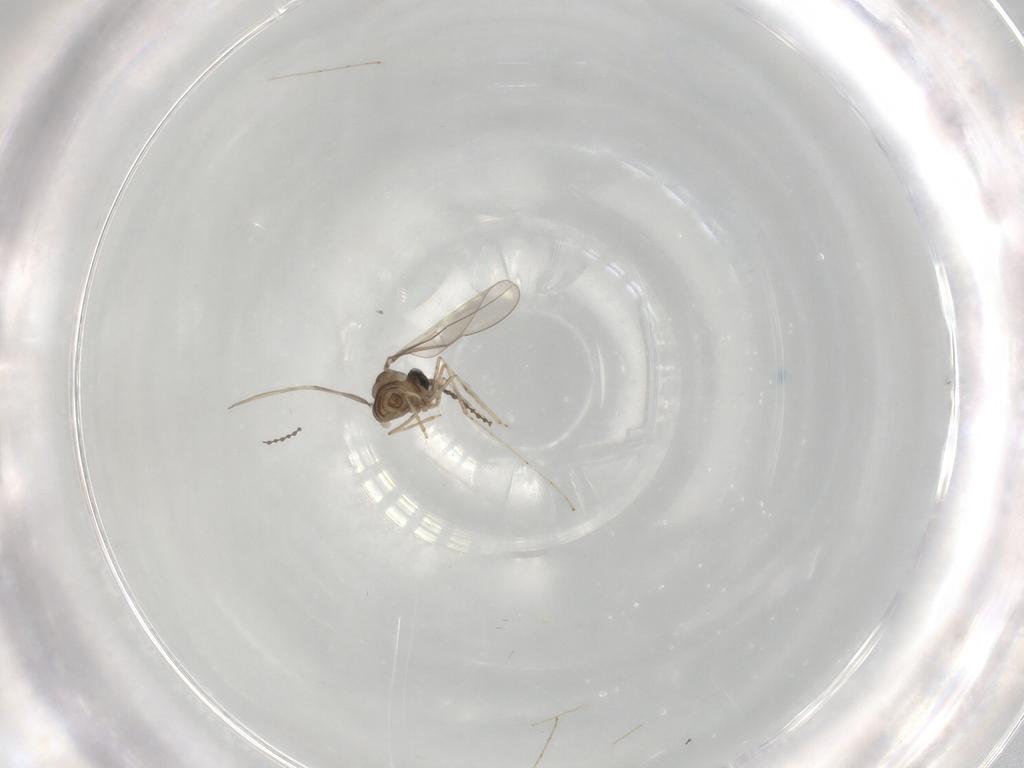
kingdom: Animalia
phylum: Arthropoda
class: Insecta
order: Diptera
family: Cecidomyiidae
